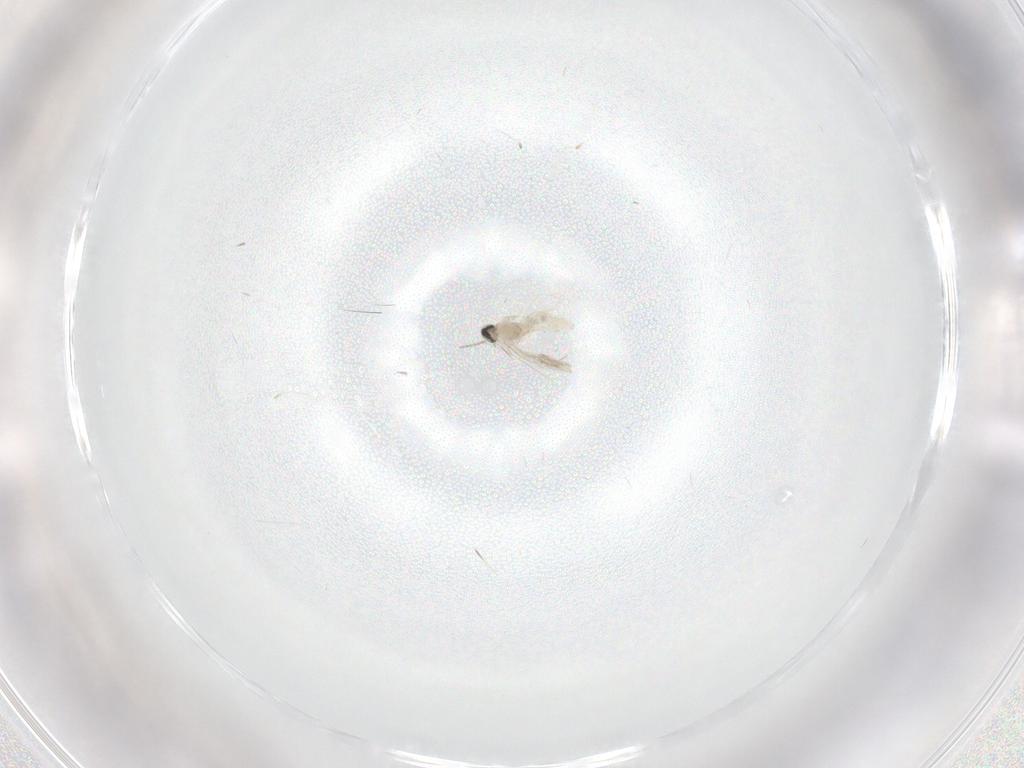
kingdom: Animalia
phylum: Arthropoda
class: Insecta
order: Diptera
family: Cecidomyiidae
